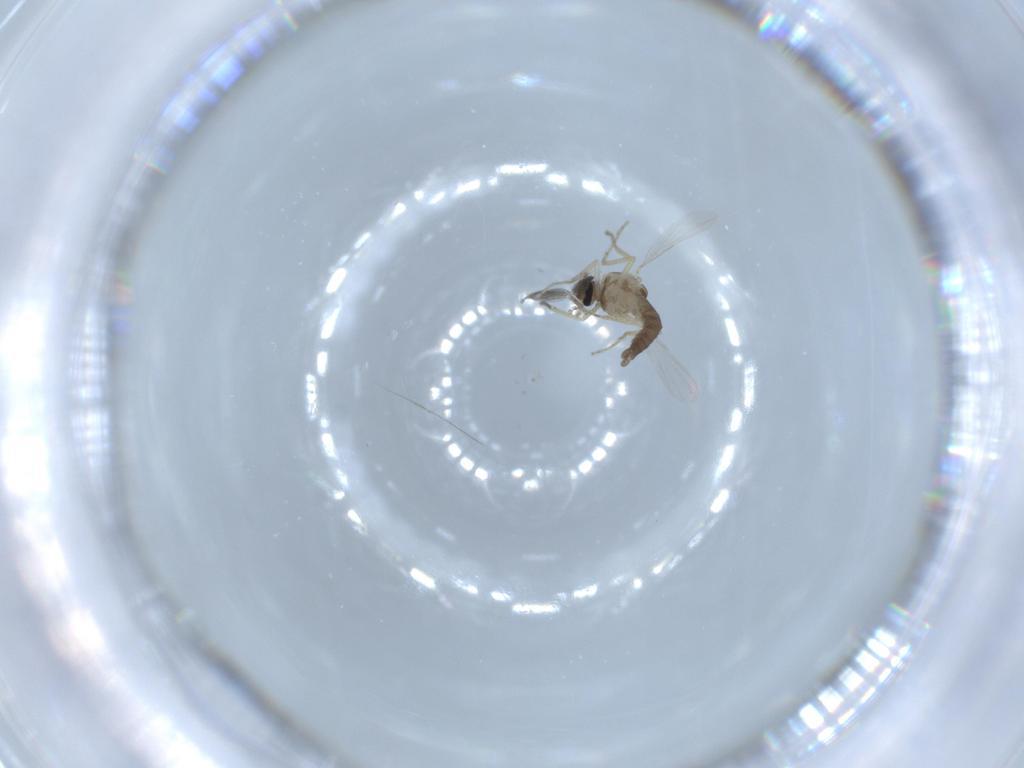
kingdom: Animalia
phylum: Arthropoda
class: Insecta
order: Diptera
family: Ceratopogonidae
